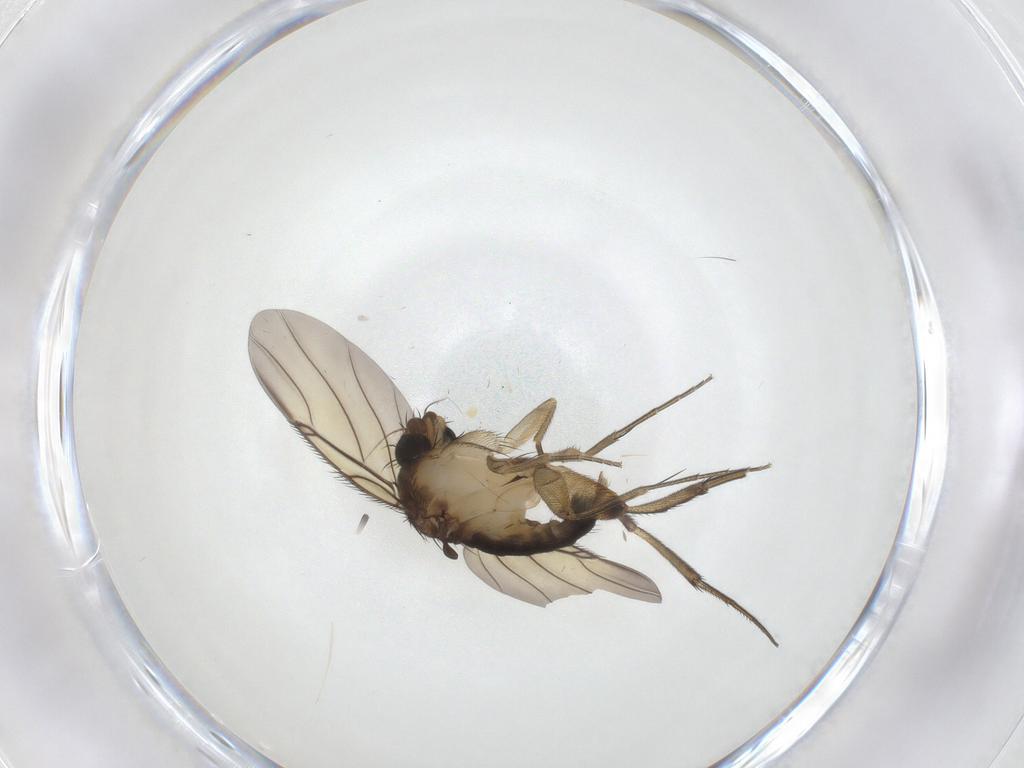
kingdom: Animalia
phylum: Arthropoda
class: Insecta
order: Diptera
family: Phoridae
